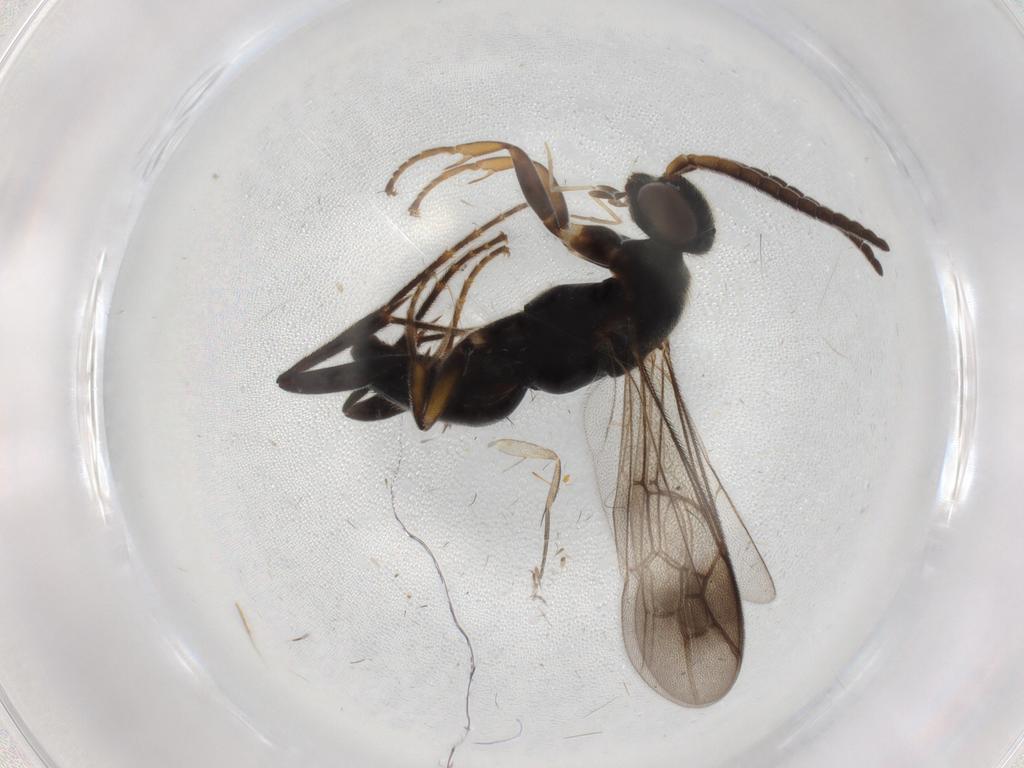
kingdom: Animalia
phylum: Arthropoda
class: Insecta
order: Hymenoptera
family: Pompilidae
